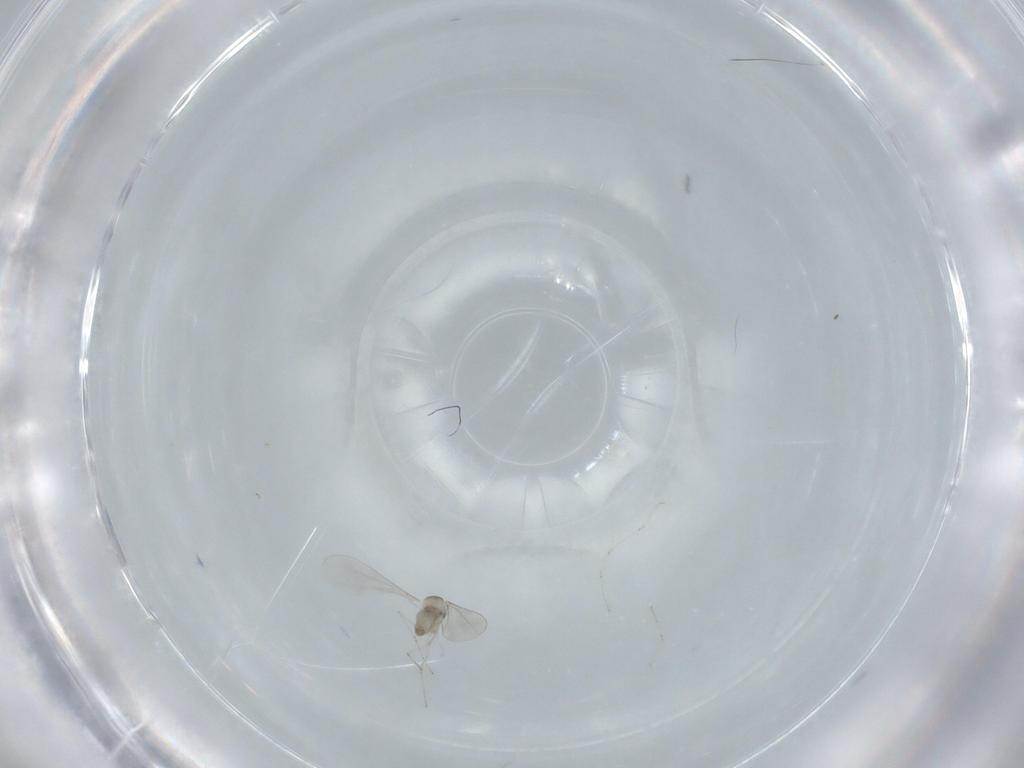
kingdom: Animalia
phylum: Arthropoda
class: Insecta
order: Diptera
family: Cecidomyiidae
